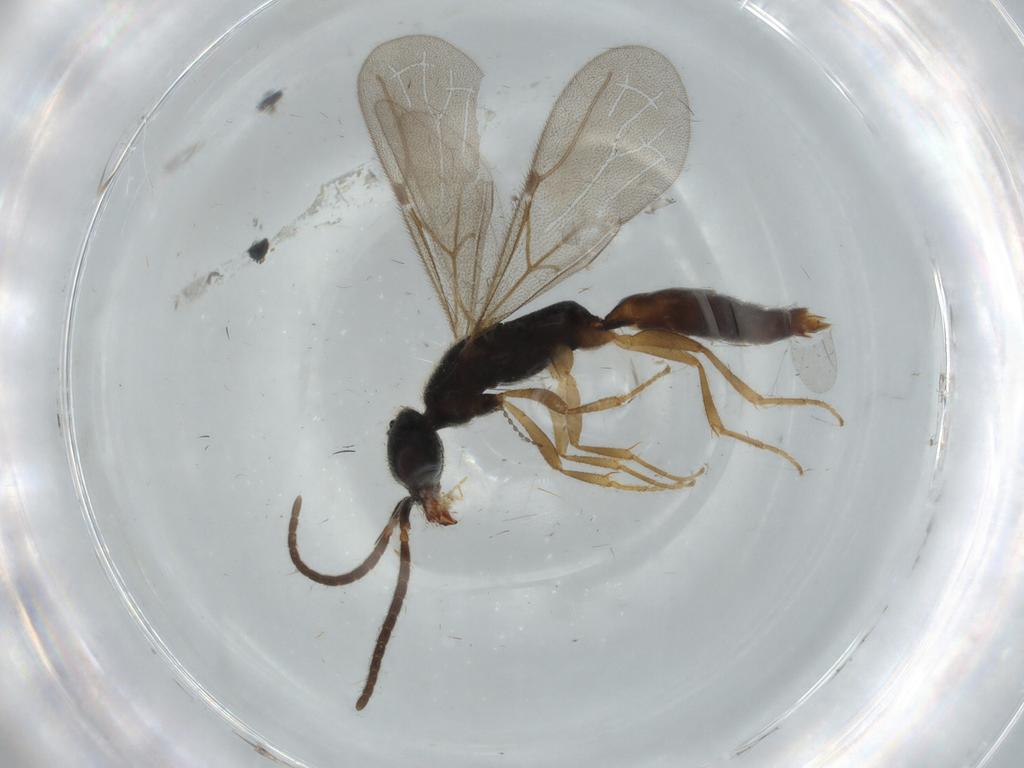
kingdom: Animalia
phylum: Arthropoda
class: Insecta
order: Hymenoptera
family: Bethylidae
